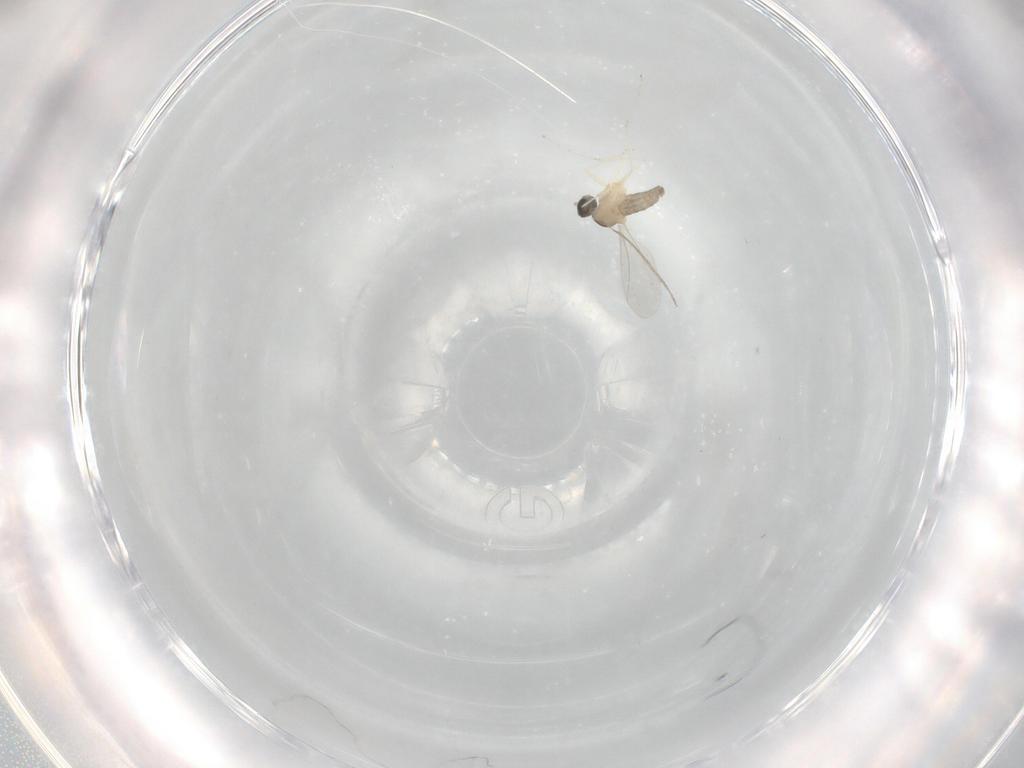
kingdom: Animalia
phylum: Arthropoda
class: Insecta
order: Diptera
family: Cecidomyiidae
